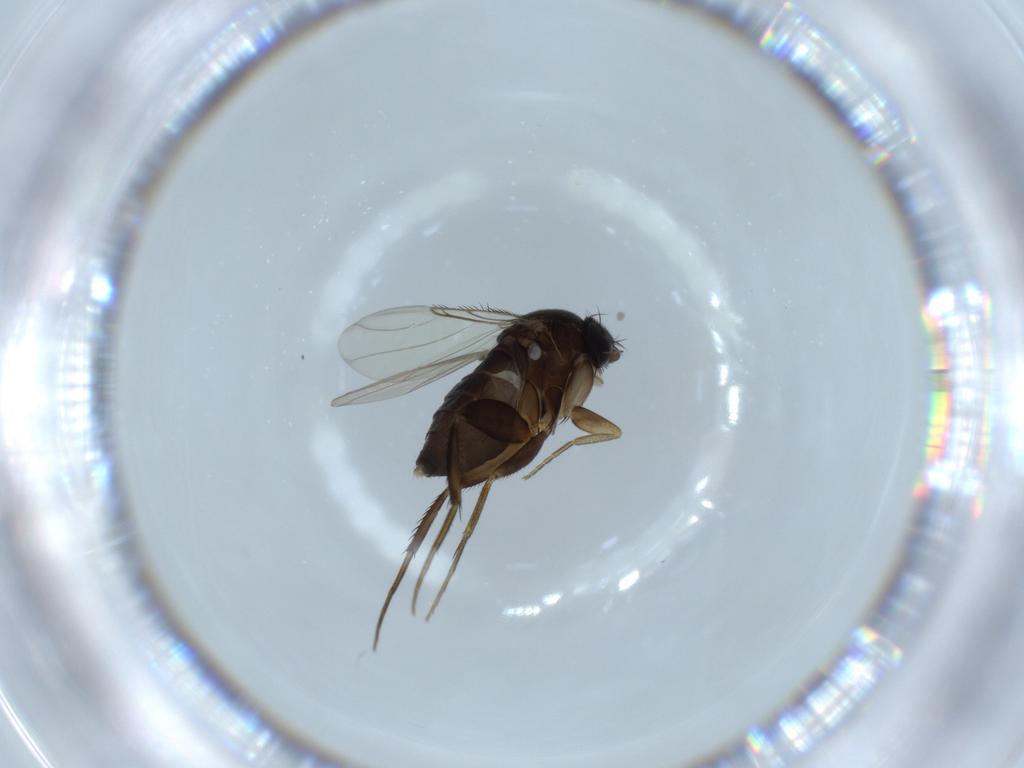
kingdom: Animalia
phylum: Arthropoda
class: Insecta
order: Diptera
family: Phoridae
